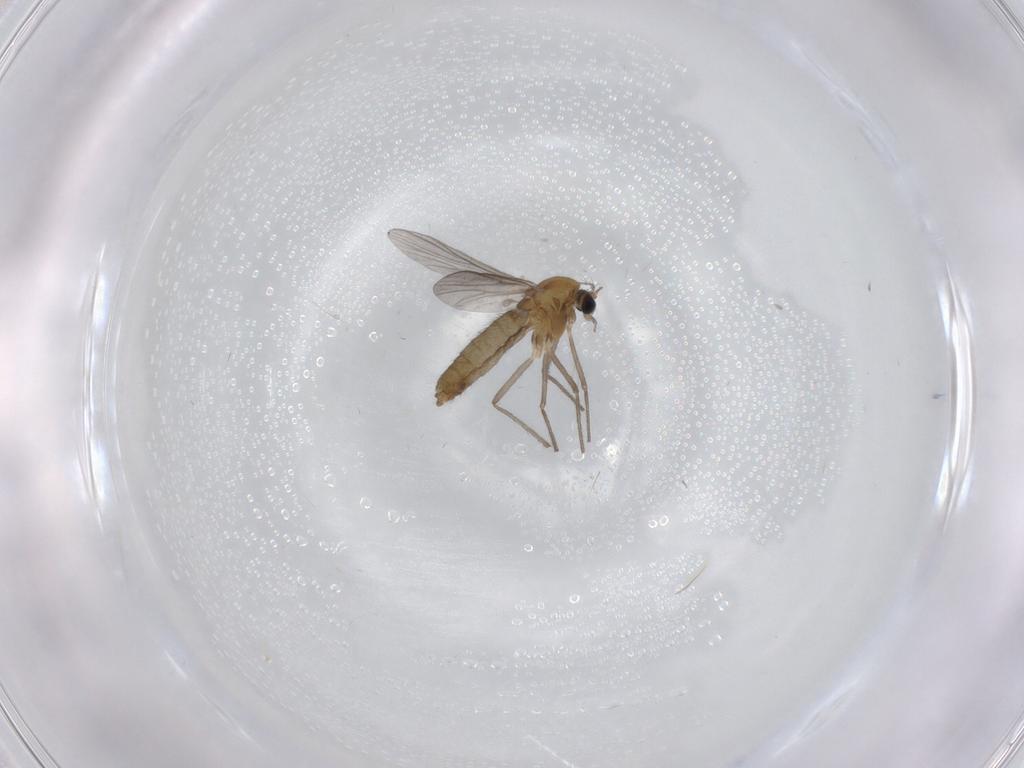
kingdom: Animalia
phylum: Arthropoda
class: Insecta
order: Diptera
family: Chironomidae
